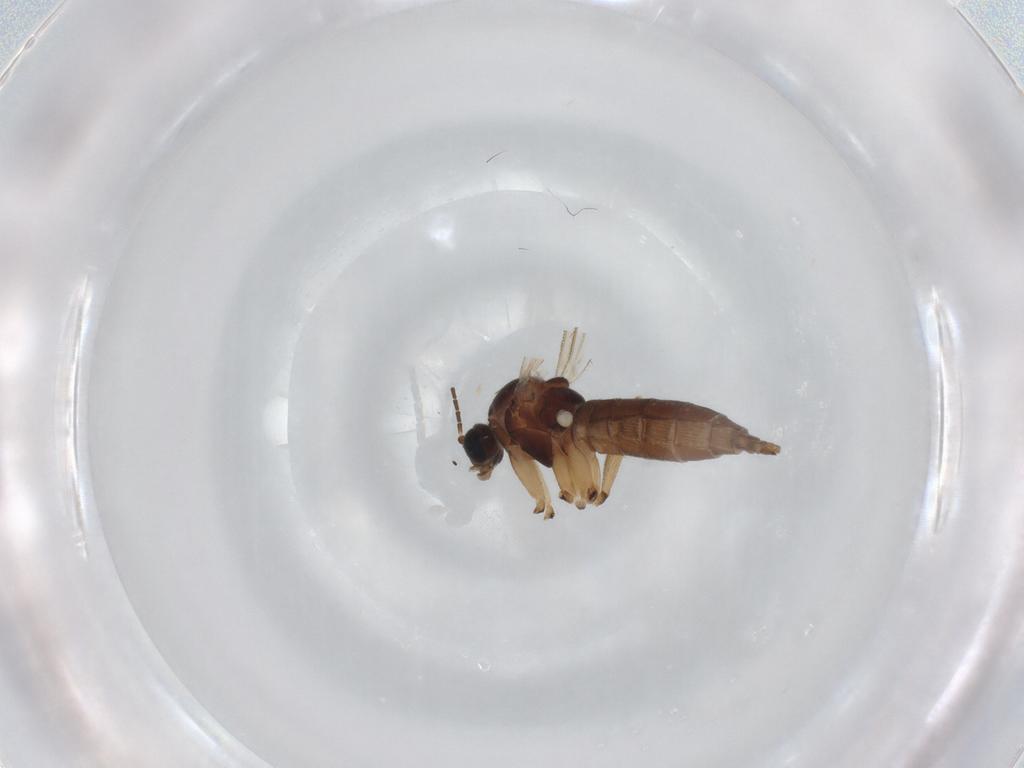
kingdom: Animalia
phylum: Arthropoda
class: Insecta
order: Diptera
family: Sciaridae
